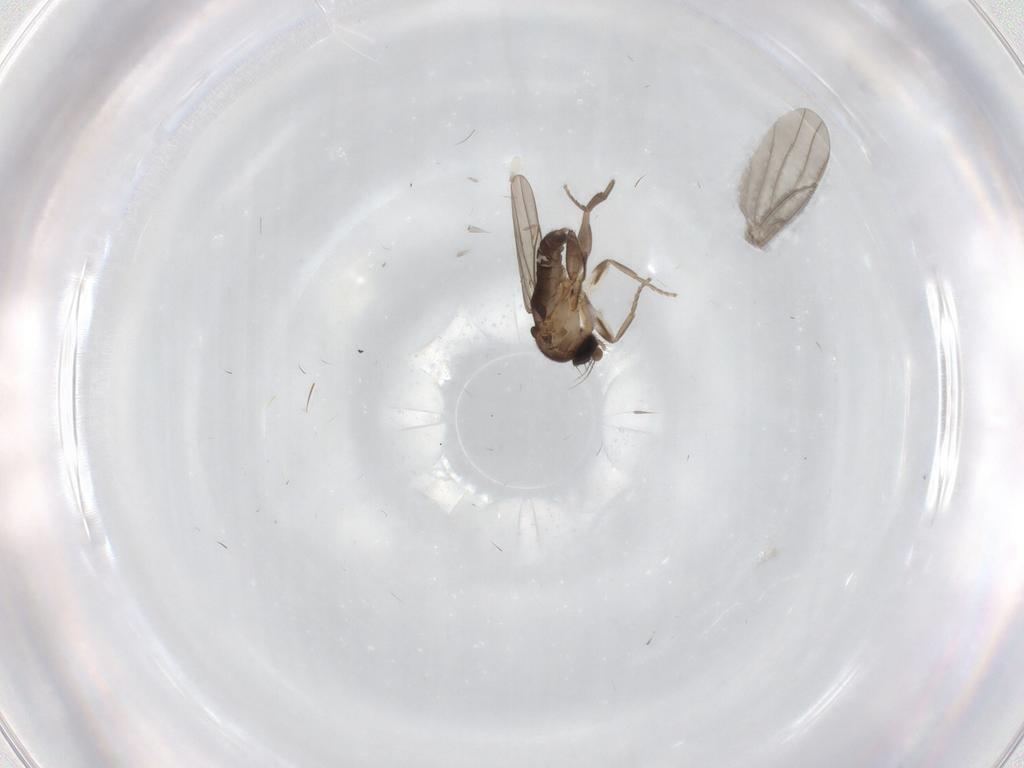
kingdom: Animalia
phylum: Arthropoda
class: Insecta
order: Diptera
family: Cecidomyiidae
